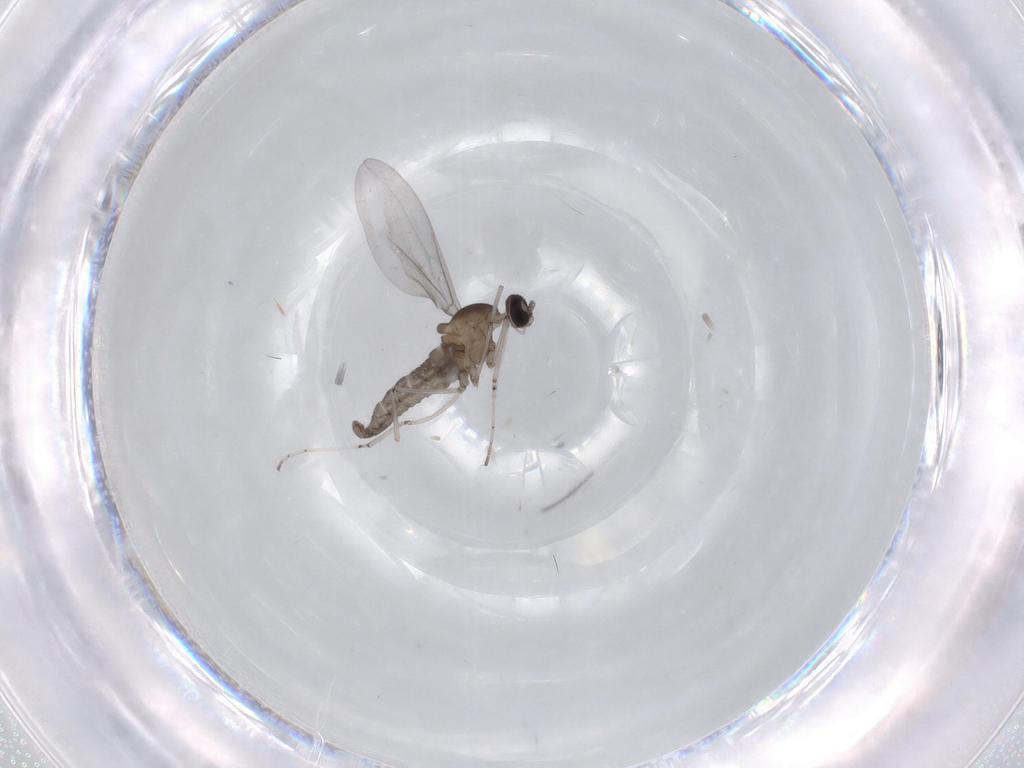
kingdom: Animalia
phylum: Arthropoda
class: Insecta
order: Diptera
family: Cecidomyiidae
